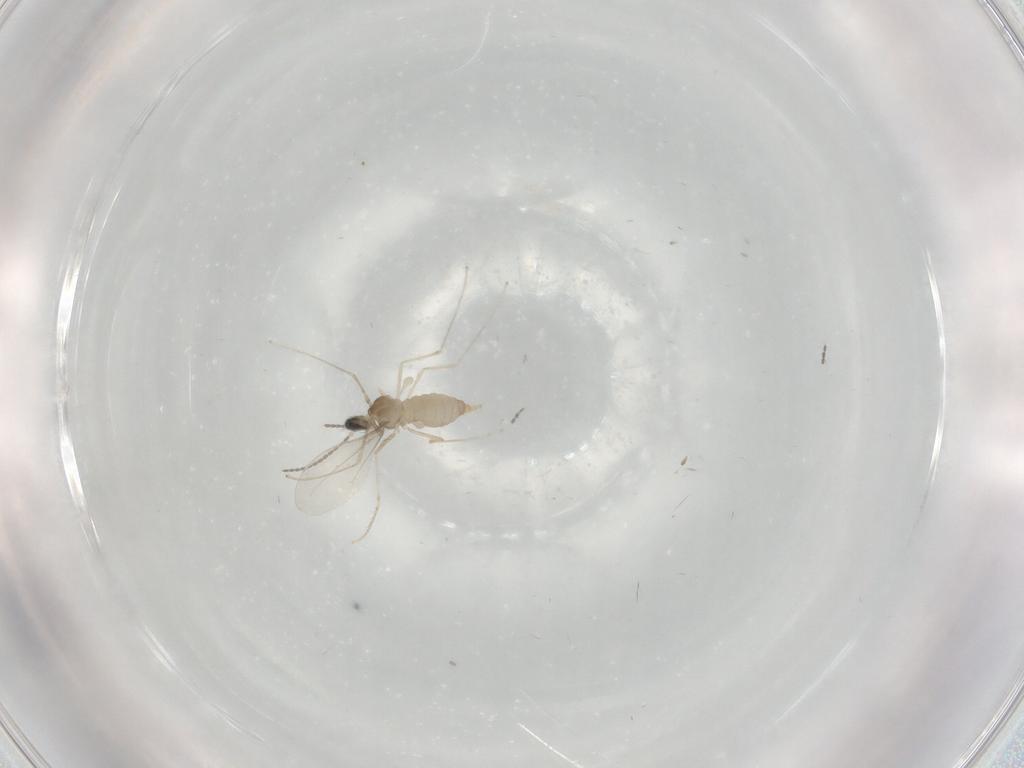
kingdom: Animalia
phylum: Arthropoda
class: Insecta
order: Diptera
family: Cecidomyiidae
